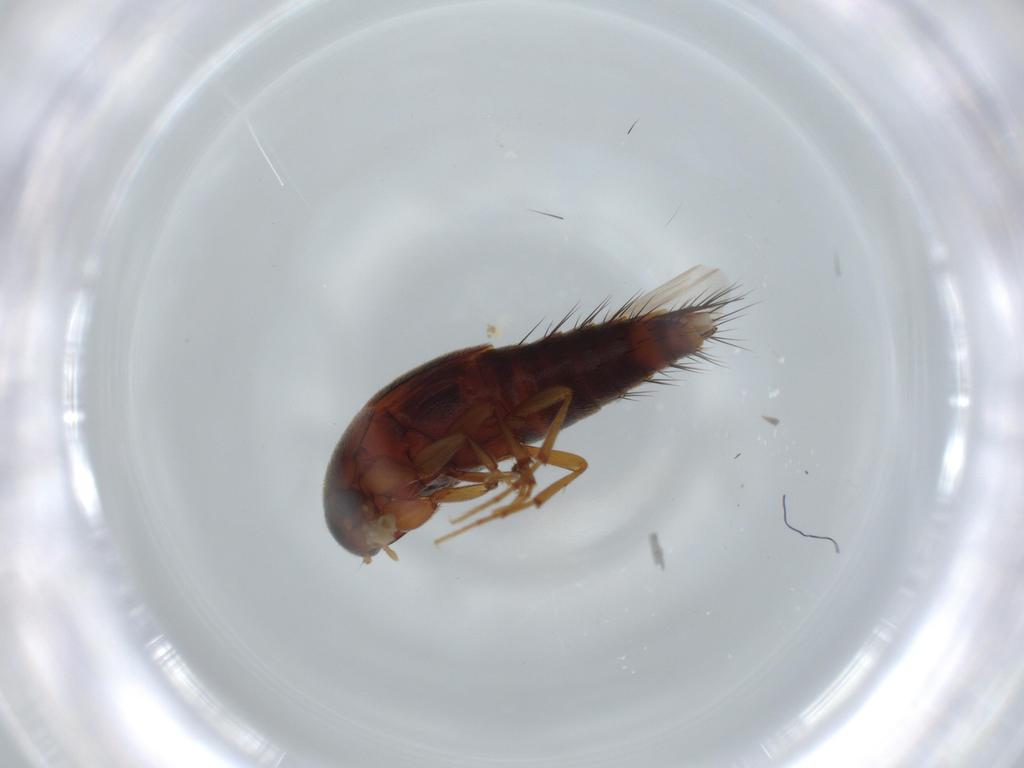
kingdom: Animalia
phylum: Arthropoda
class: Insecta
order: Coleoptera
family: Staphylinidae
